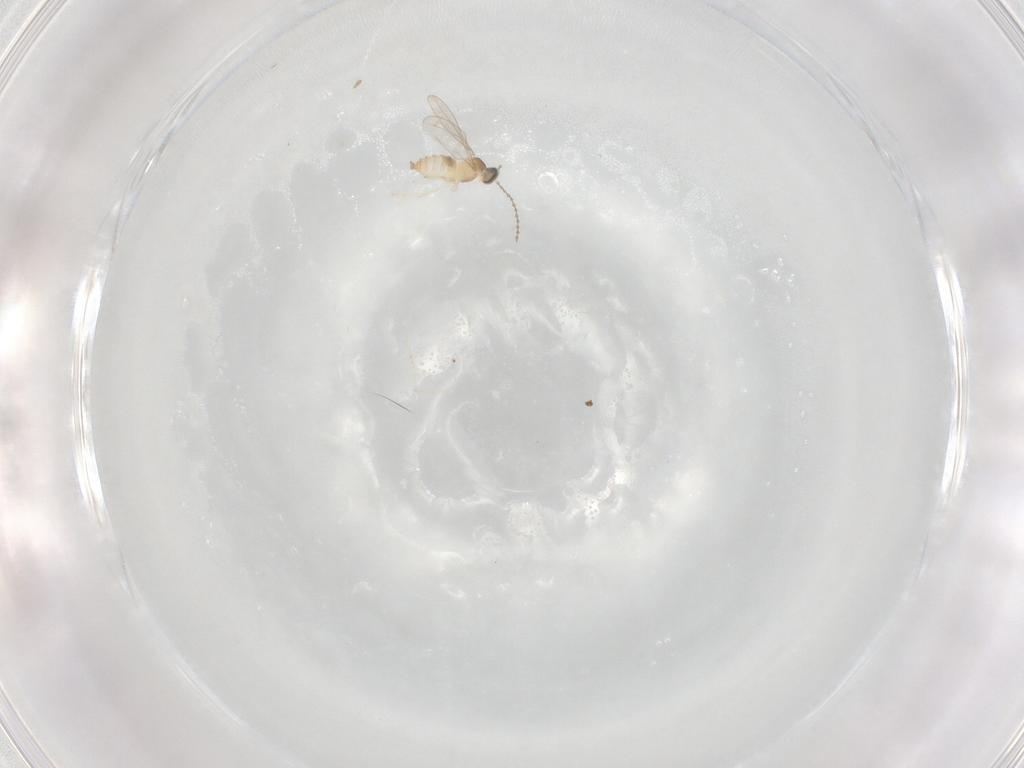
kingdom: Animalia
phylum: Arthropoda
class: Insecta
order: Diptera
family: Cecidomyiidae
